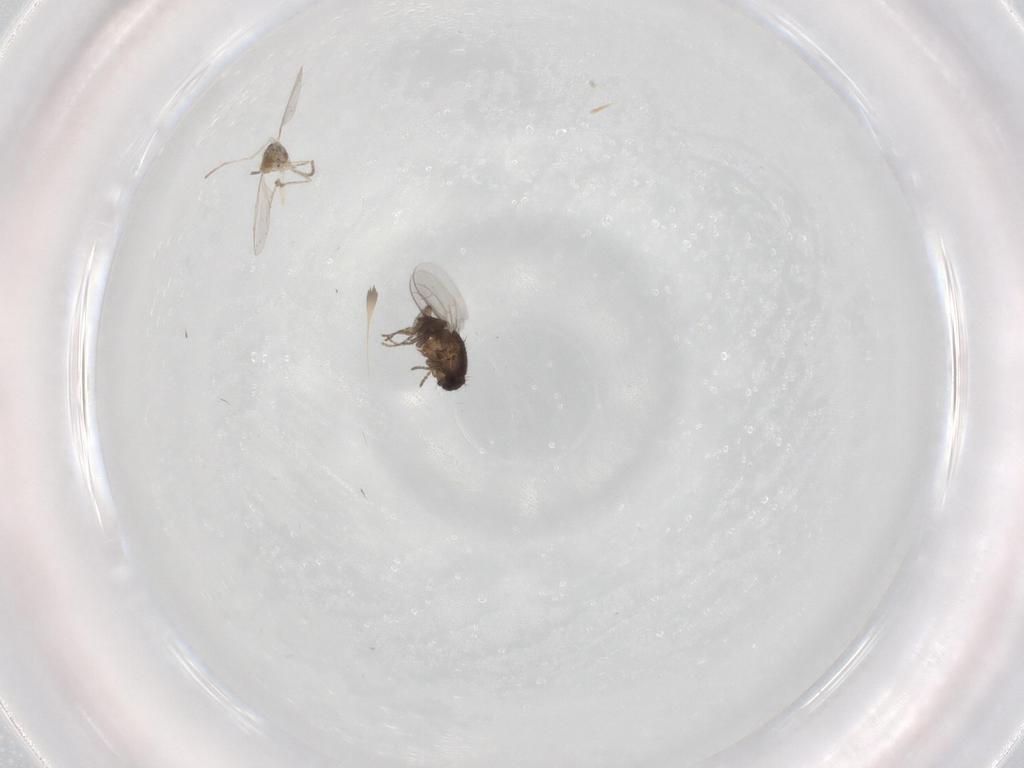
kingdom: Animalia
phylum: Arthropoda
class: Insecta
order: Diptera
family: Cecidomyiidae
